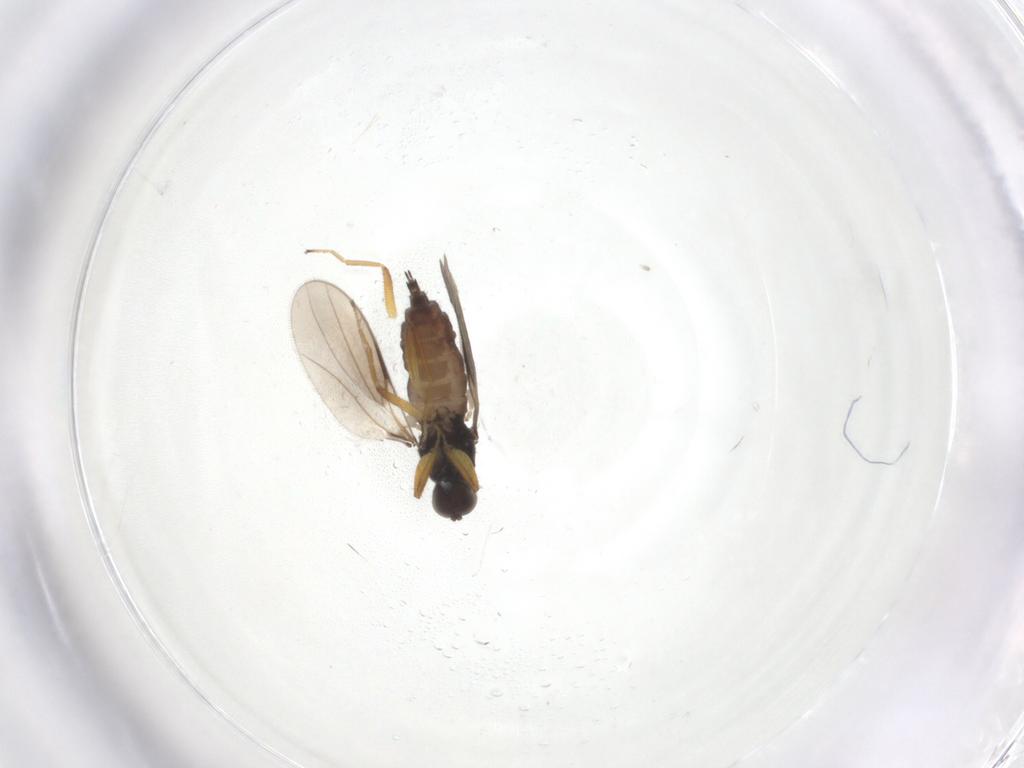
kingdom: Animalia
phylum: Arthropoda
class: Insecta
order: Diptera
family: Hybotidae
